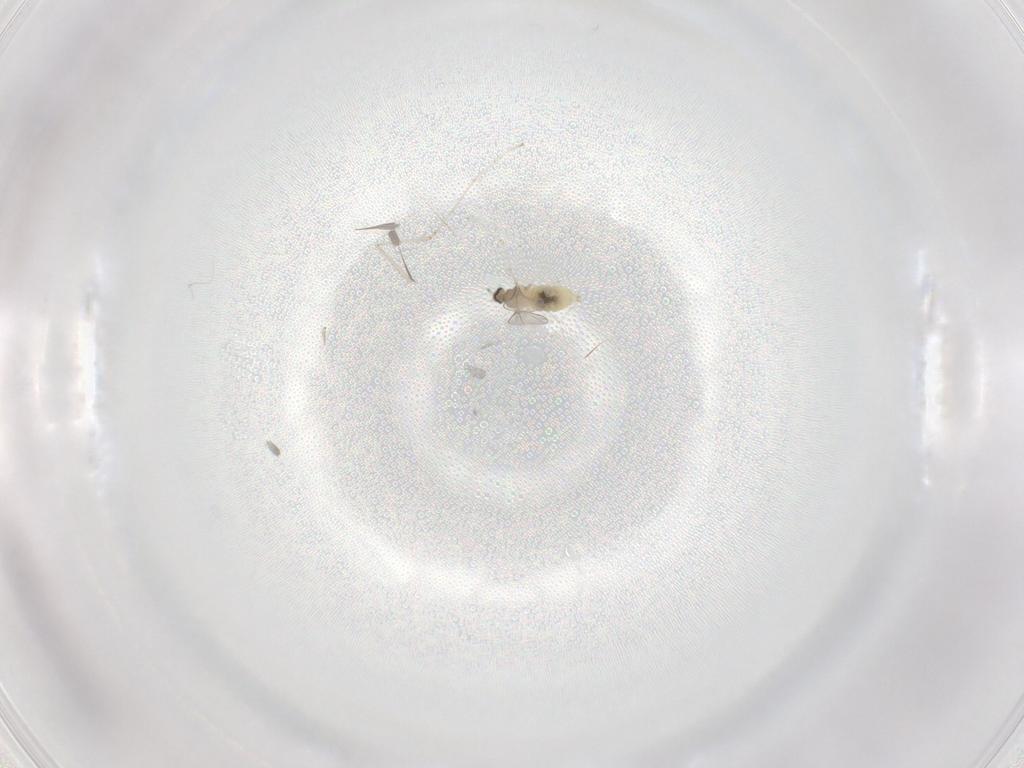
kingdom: Animalia
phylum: Arthropoda
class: Insecta
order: Diptera
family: Cecidomyiidae
